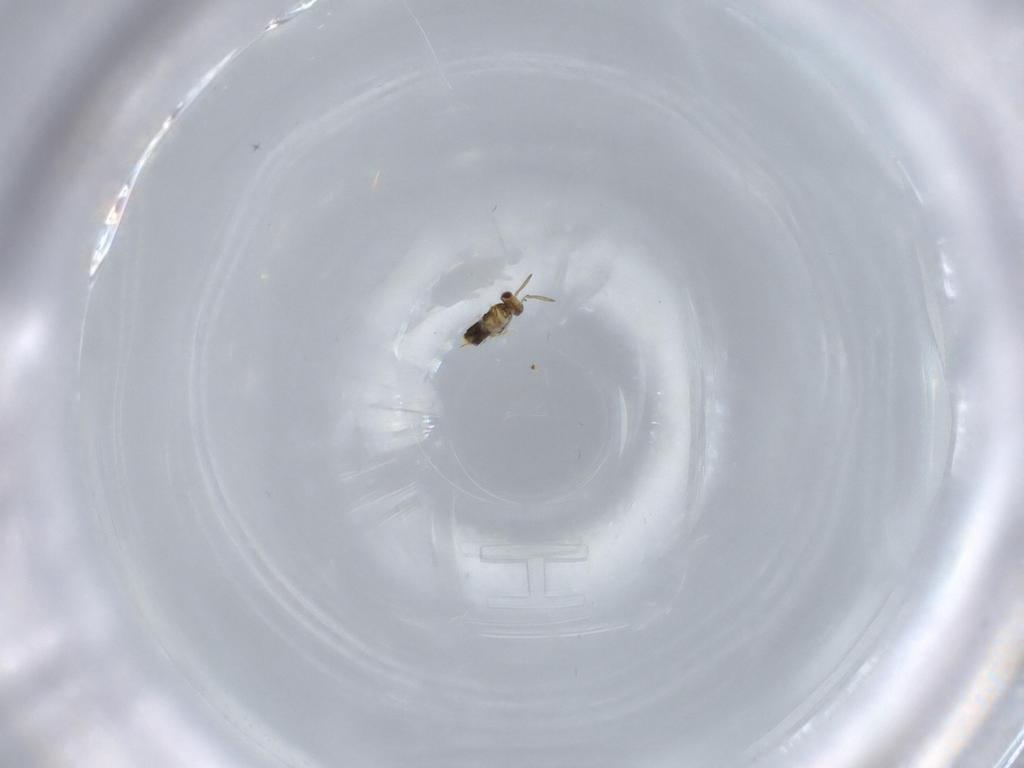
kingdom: Animalia
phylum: Arthropoda
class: Insecta
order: Hymenoptera
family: Aphelinidae
